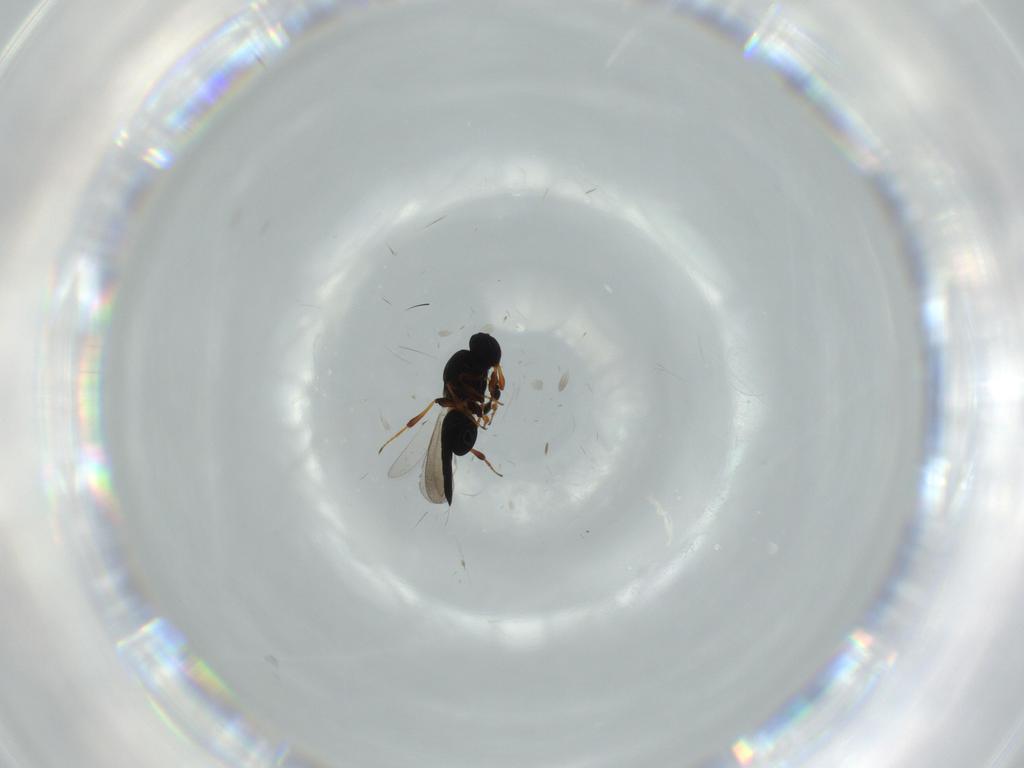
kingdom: Animalia
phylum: Arthropoda
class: Insecta
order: Hymenoptera
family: Platygastridae
